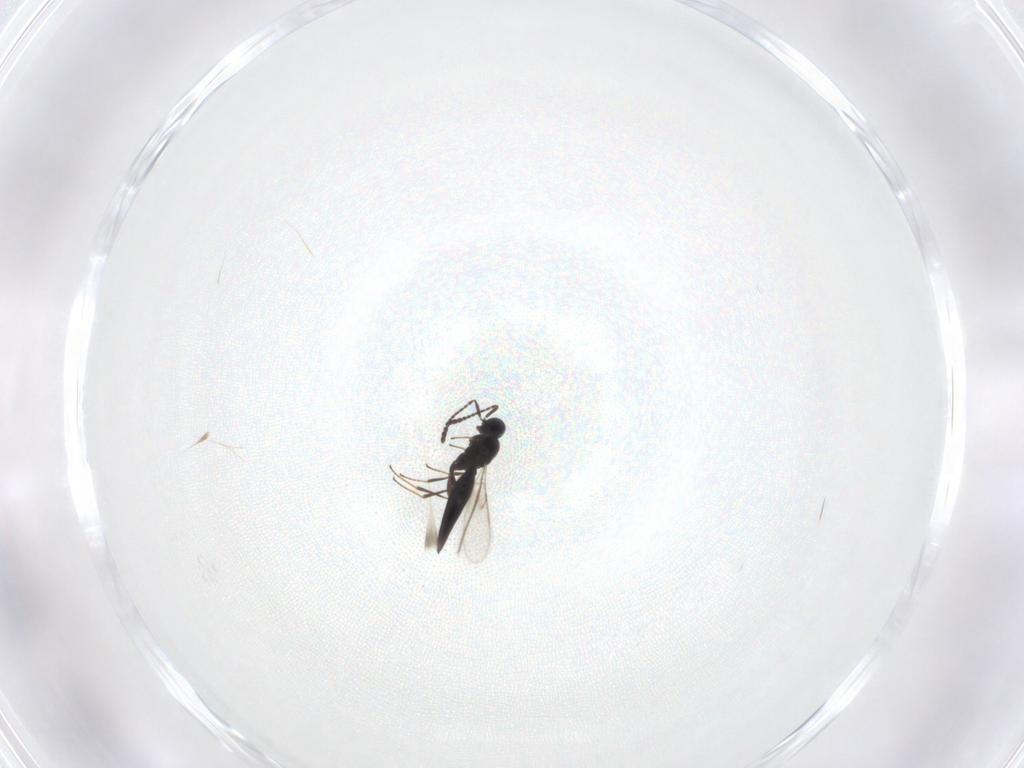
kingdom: Animalia
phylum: Arthropoda
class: Insecta
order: Hymenoptera
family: Scelionidae
